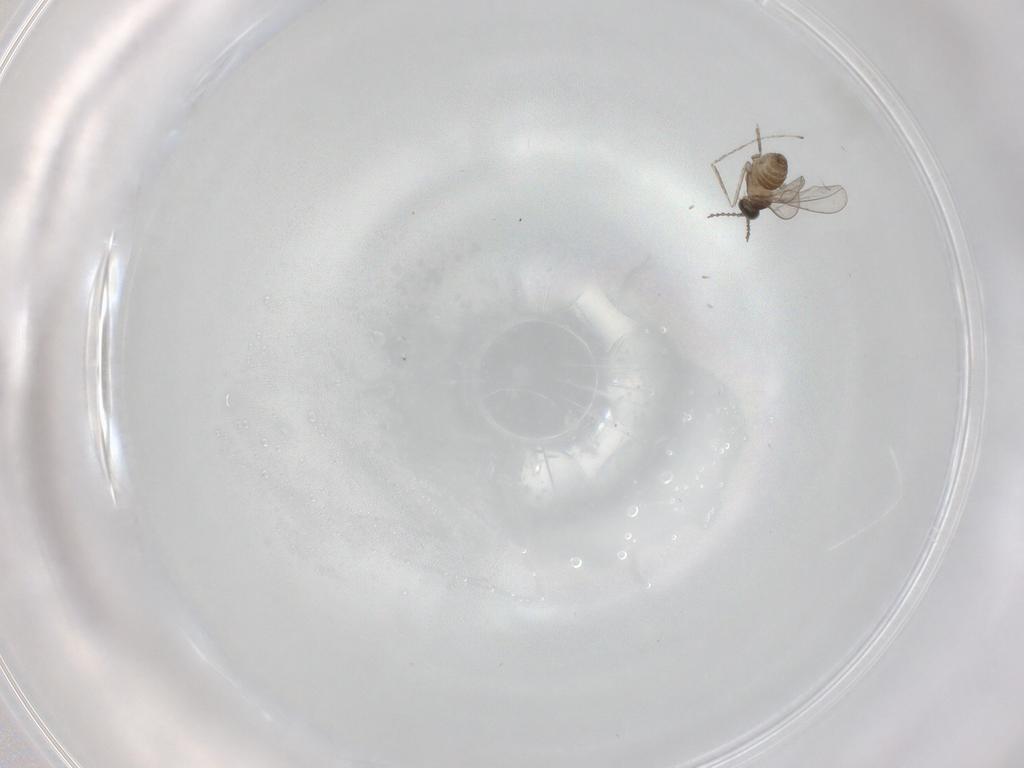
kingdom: Animalia
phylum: Arthropoda
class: Insecta
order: Diptera
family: Cecidomyiidae
